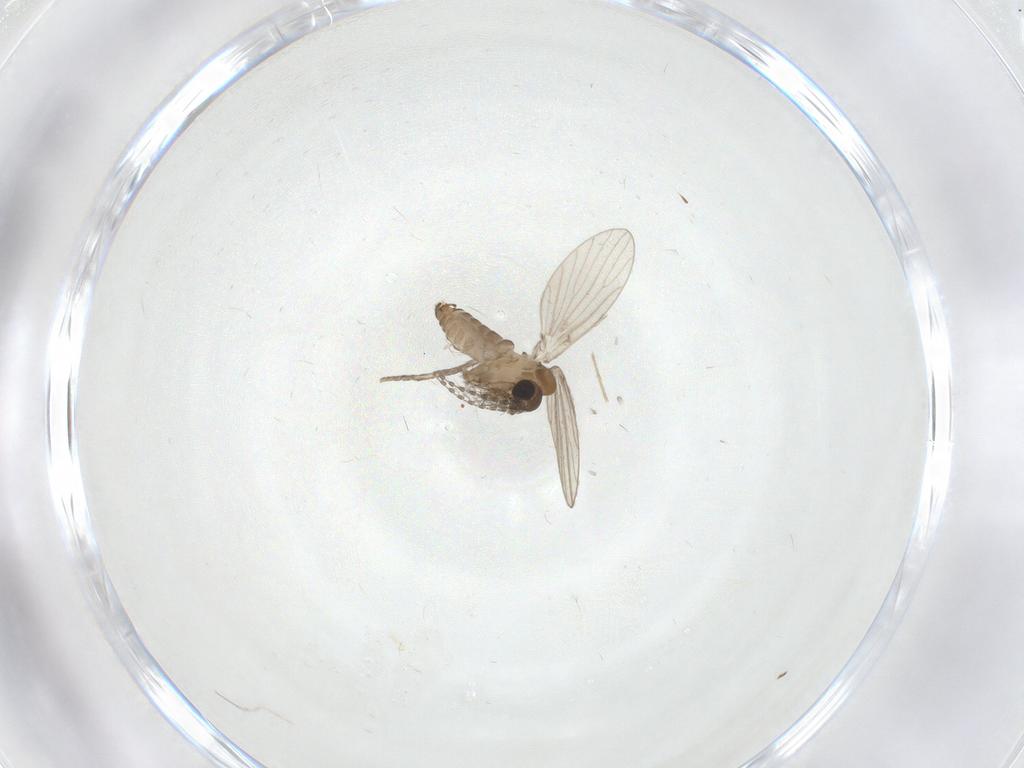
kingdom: Animalia
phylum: Arthropoda
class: Insecta
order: Diptera
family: Psychodidae
